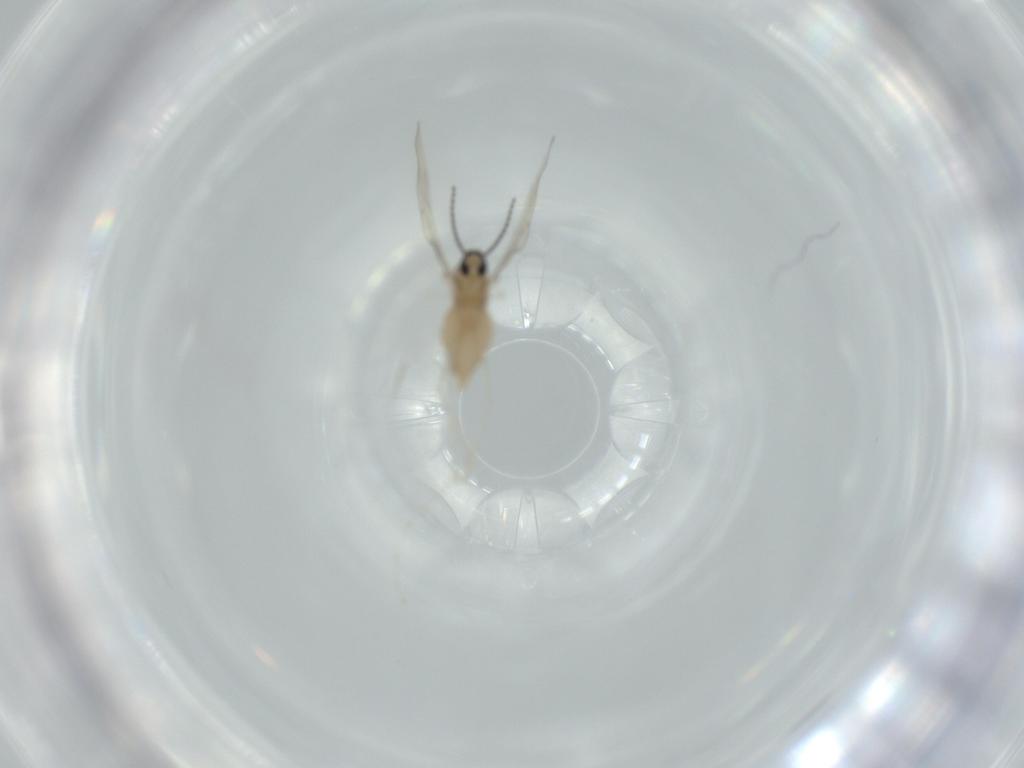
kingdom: Animalia
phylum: Arthropoda
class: Insecta
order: Diptera
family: Cecidomyiidae
